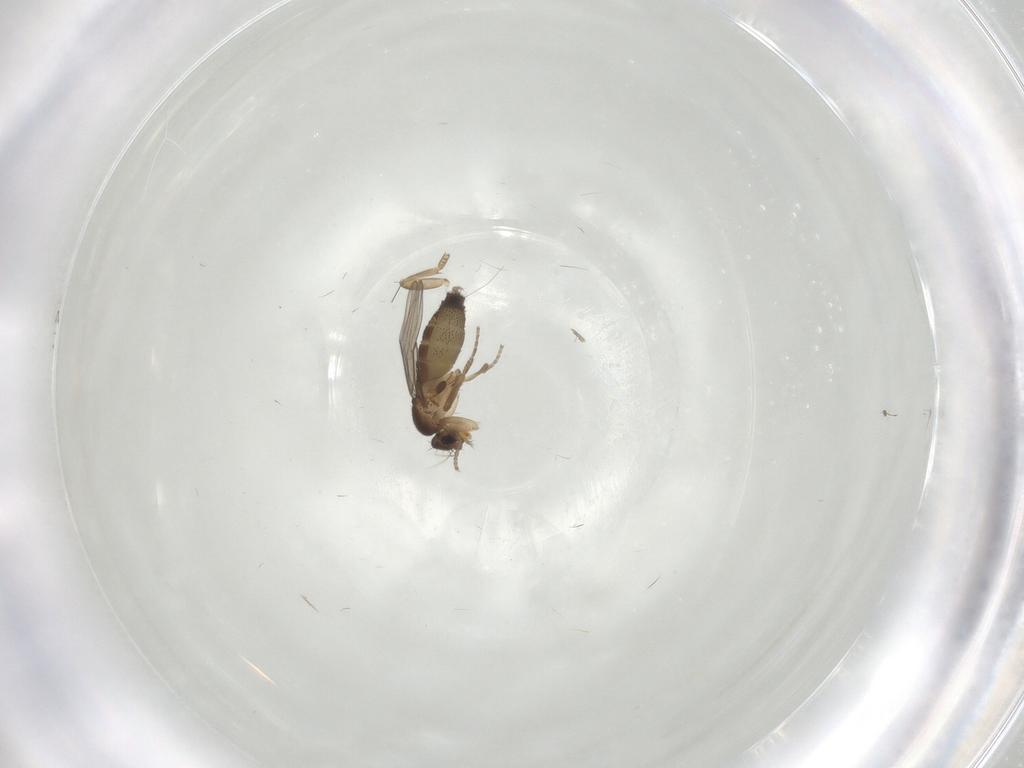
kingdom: Animalia
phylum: Arthropoda
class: Insecta
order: Diptera
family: Phoridae
